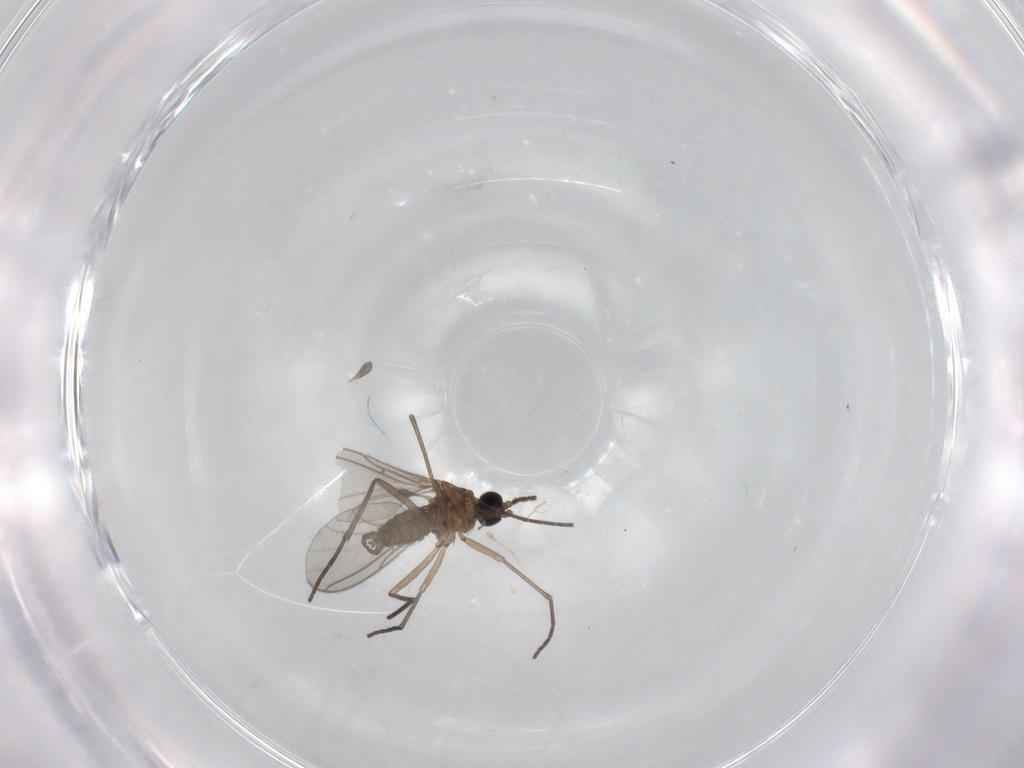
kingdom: Animalia
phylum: Arthropoda
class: Insecta
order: Diptera
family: Sciaridae
